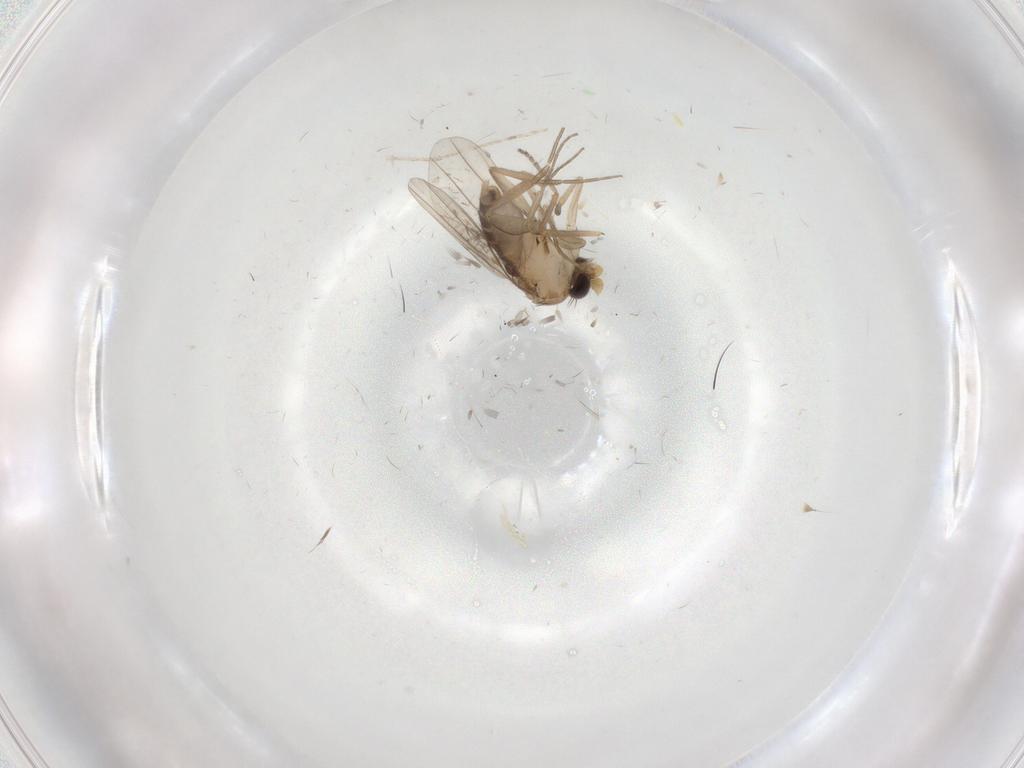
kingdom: Animalia
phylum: Arthropoda
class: Insecta
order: Diptera
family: Phoridae
